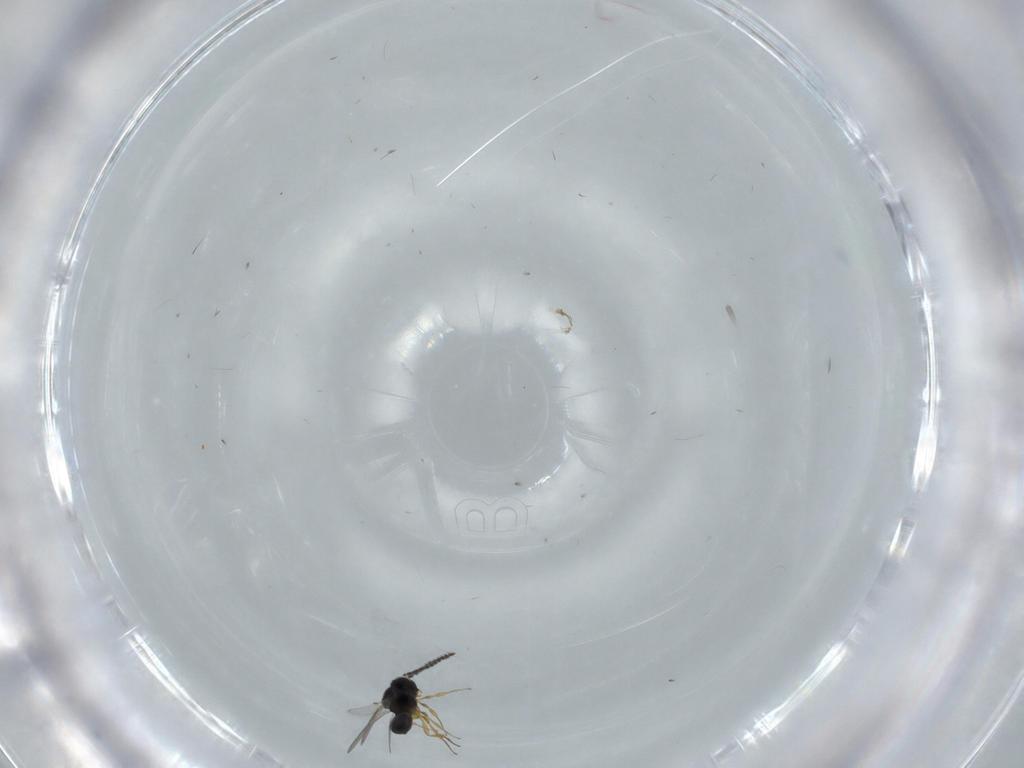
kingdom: Animalia
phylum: Arthropoda
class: Insecta
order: Hymenoptera
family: Scelionidae
